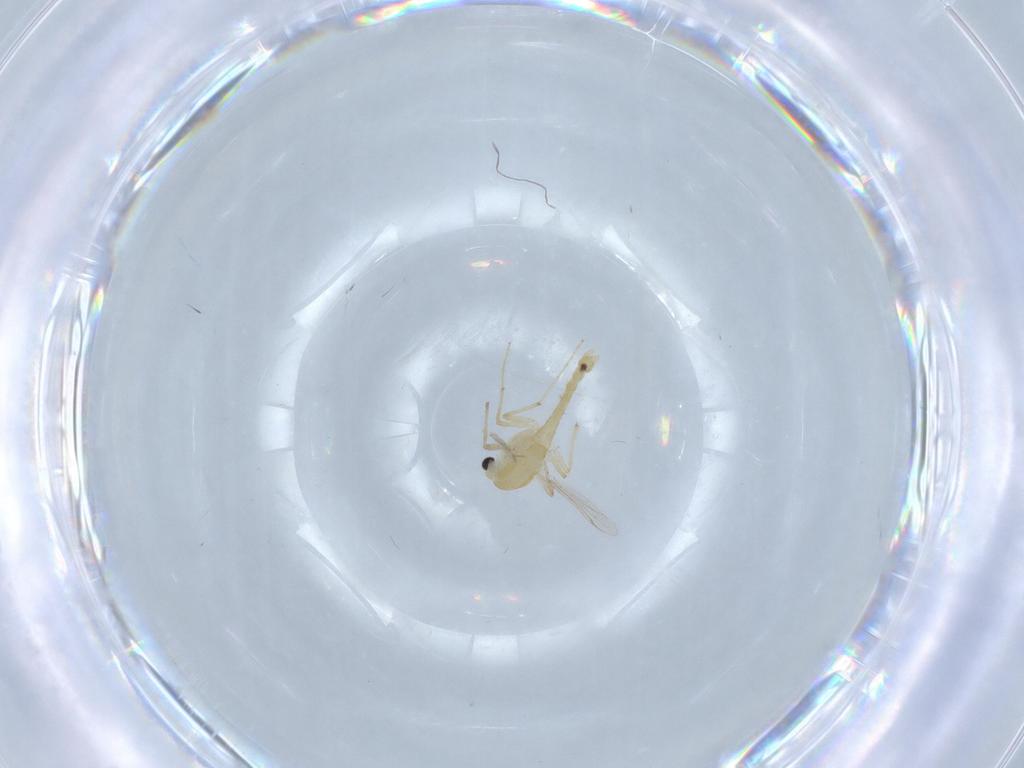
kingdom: Animalia
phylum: Arthropoda
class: Insecta
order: Diptera
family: Chironomidae
